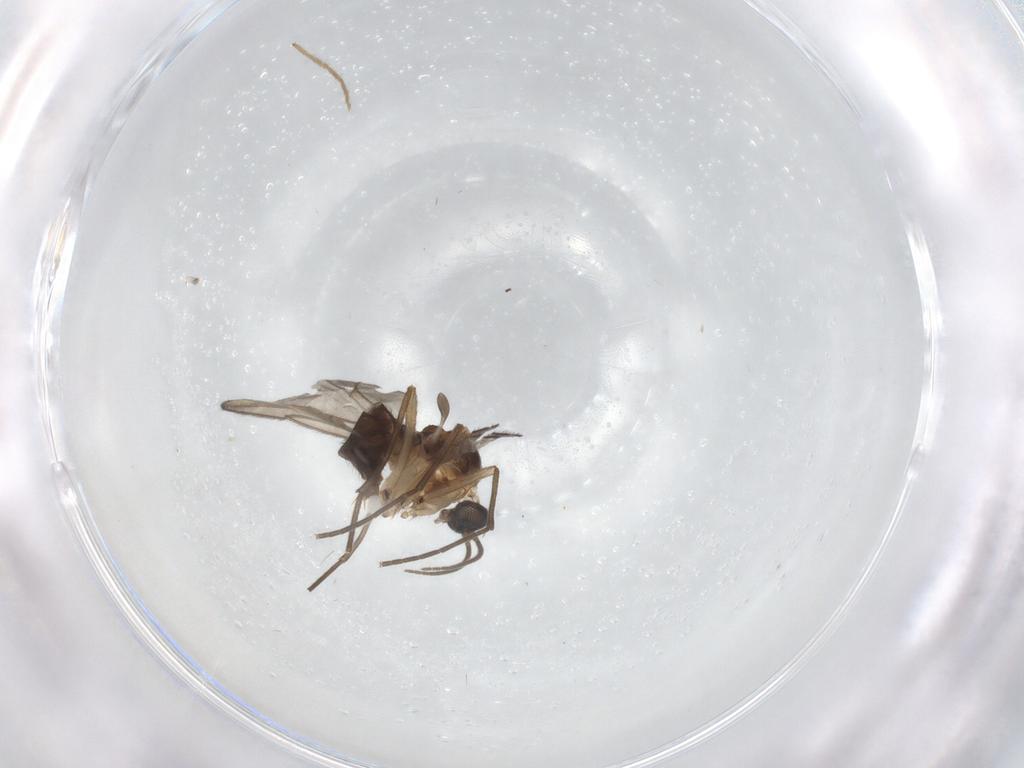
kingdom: Animalia
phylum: Arthropoda
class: Insecta
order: Diptera
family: Sciaridae
